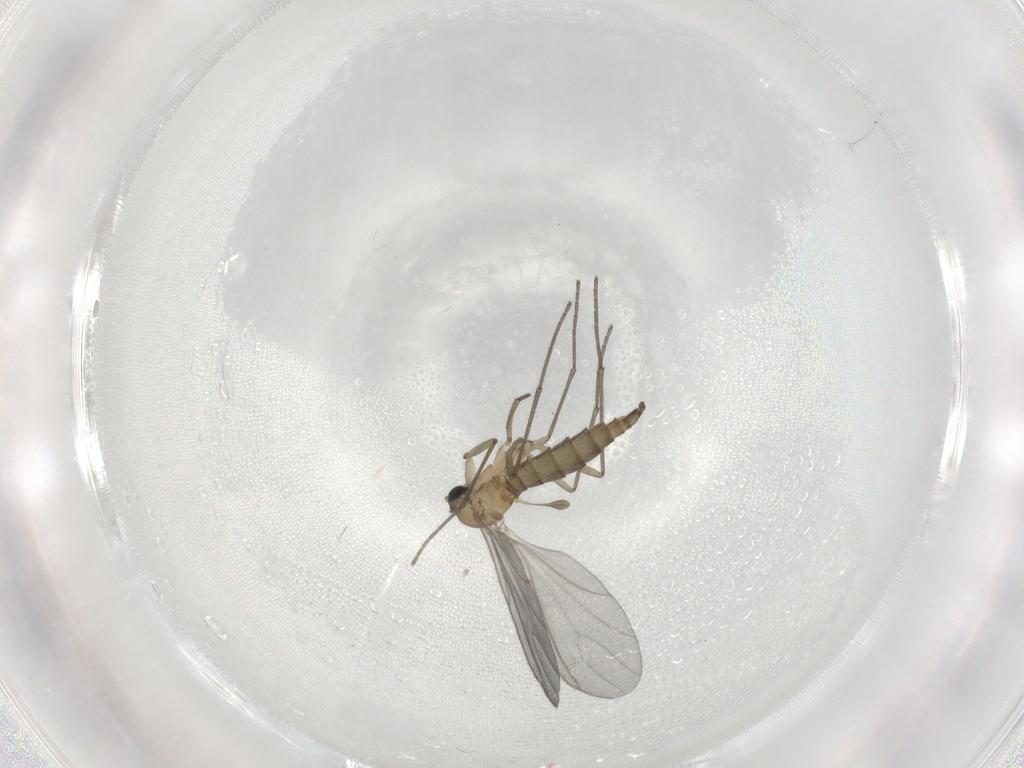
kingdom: Animalia
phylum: Arthropoda
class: Insecta
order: Diptera
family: Sciaridae
